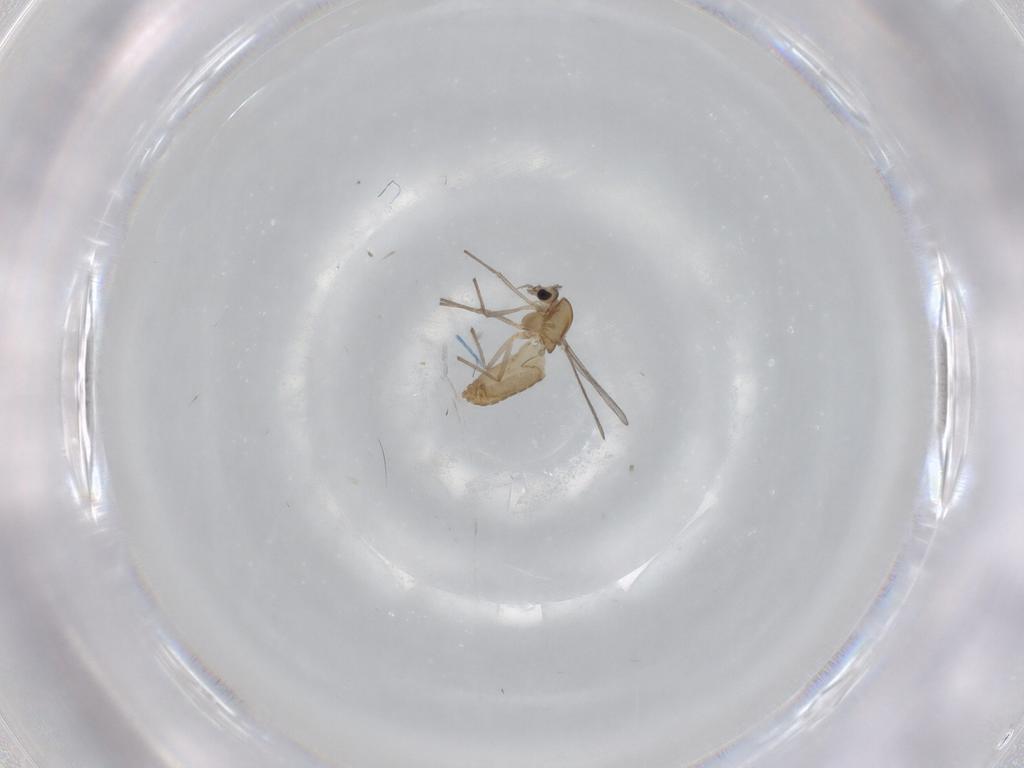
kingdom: Animalia
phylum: Arthropoda
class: Insecta
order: Diptera
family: Chironomidae
